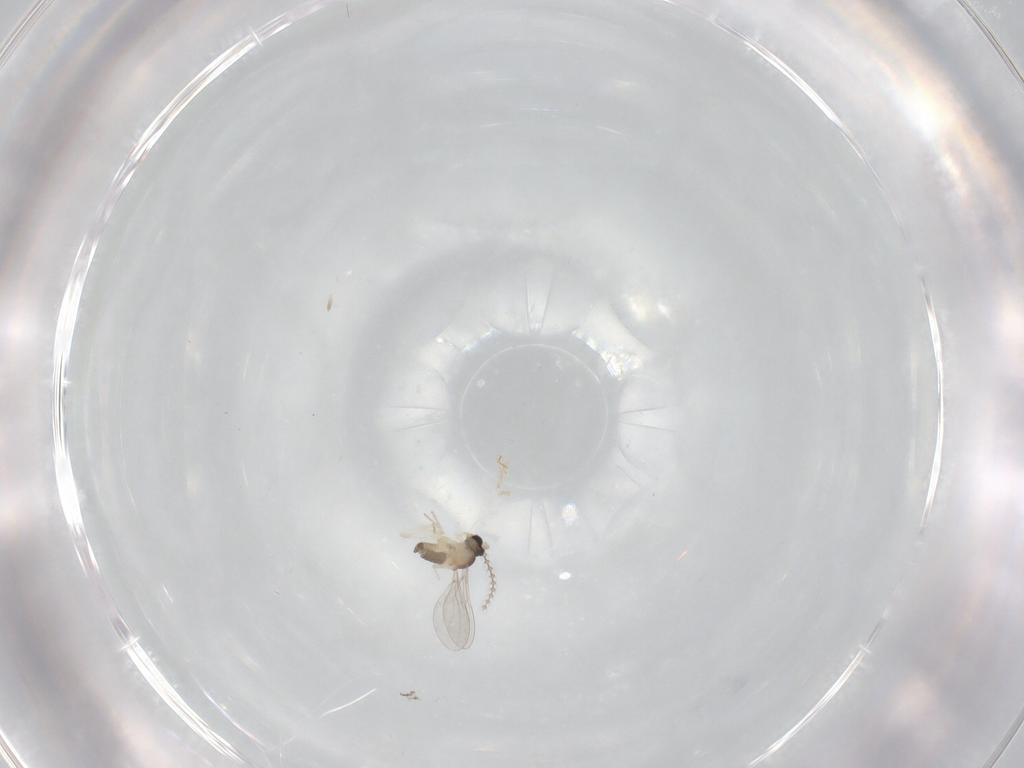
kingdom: Animalia
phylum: Arthropoda
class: Insecta
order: Diptera
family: Cecidomyiidae
